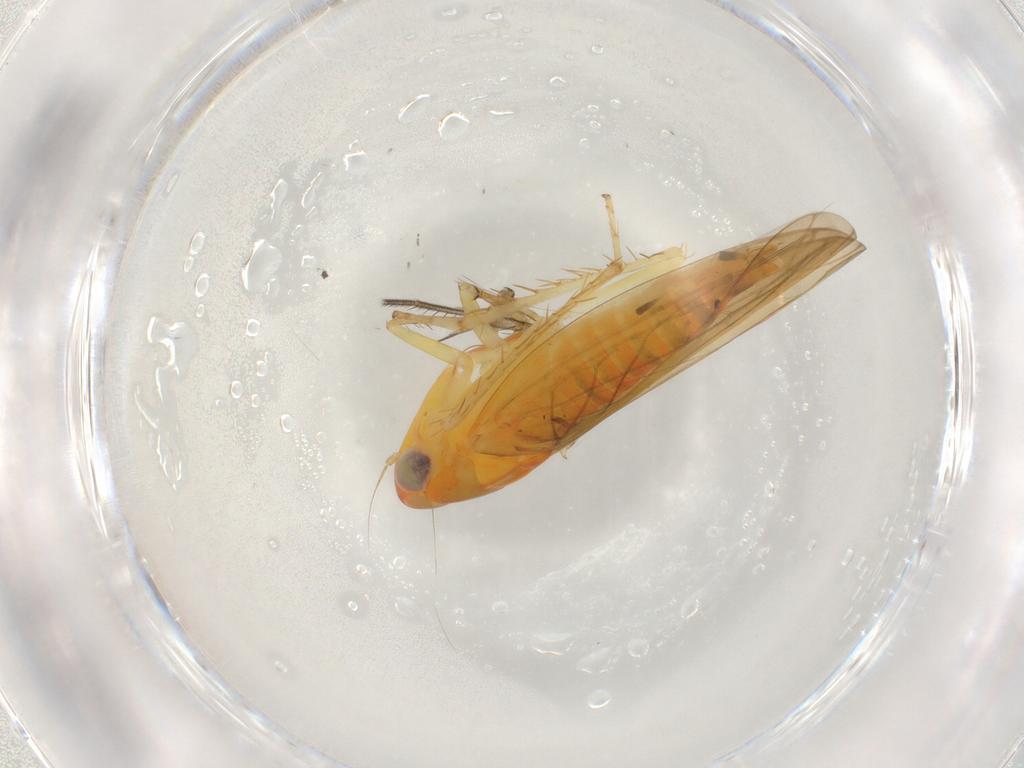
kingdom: Animalia
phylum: Arthropoda
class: Insecta
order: Hemiptera
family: Cicadellidae
